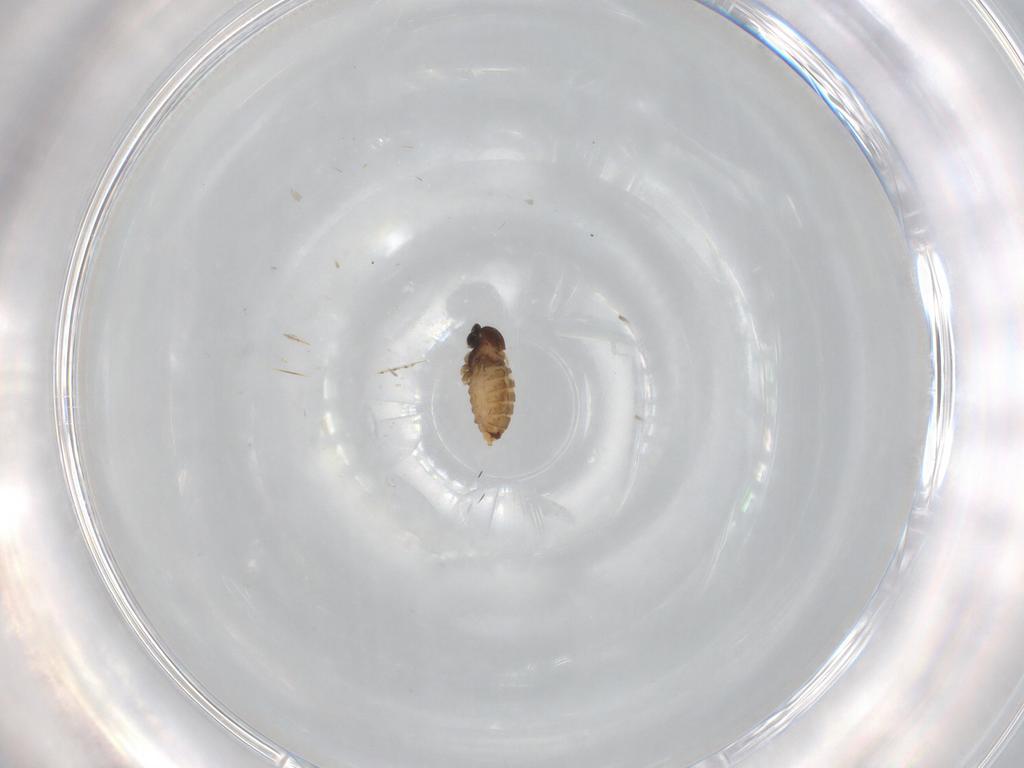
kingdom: Animalia
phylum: Arthropoda
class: Insecta
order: Diptera
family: Cecidomyiidae
